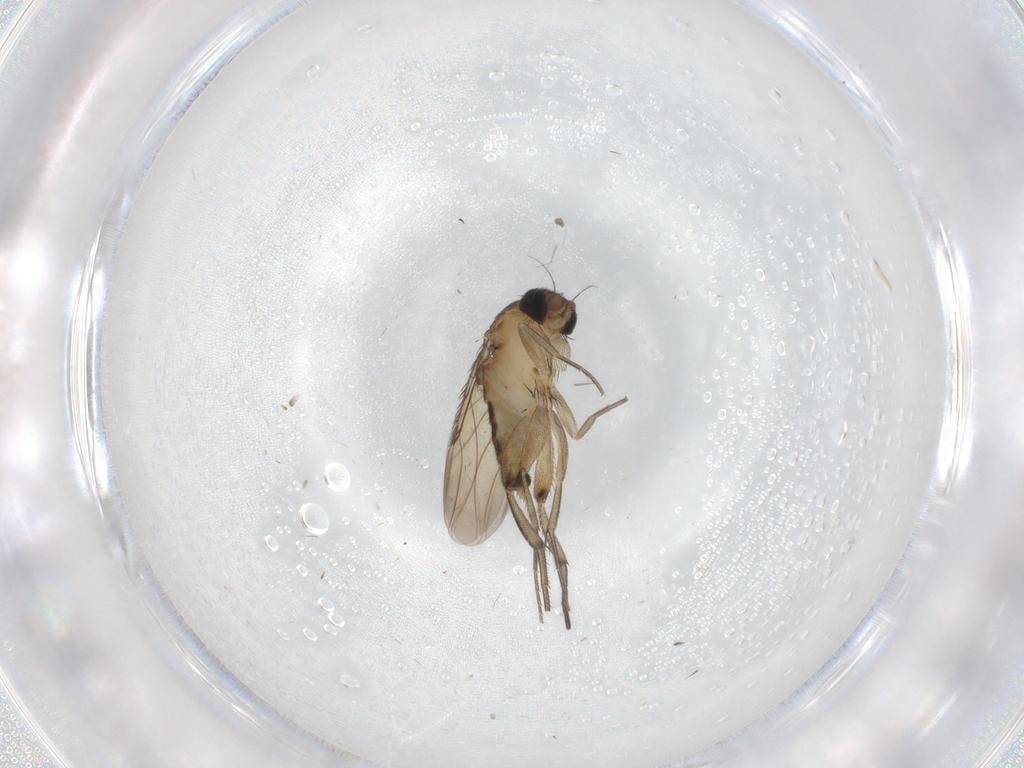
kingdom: Animalia
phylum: Arthropoda
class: Insecta
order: Diptera
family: Phoridae
